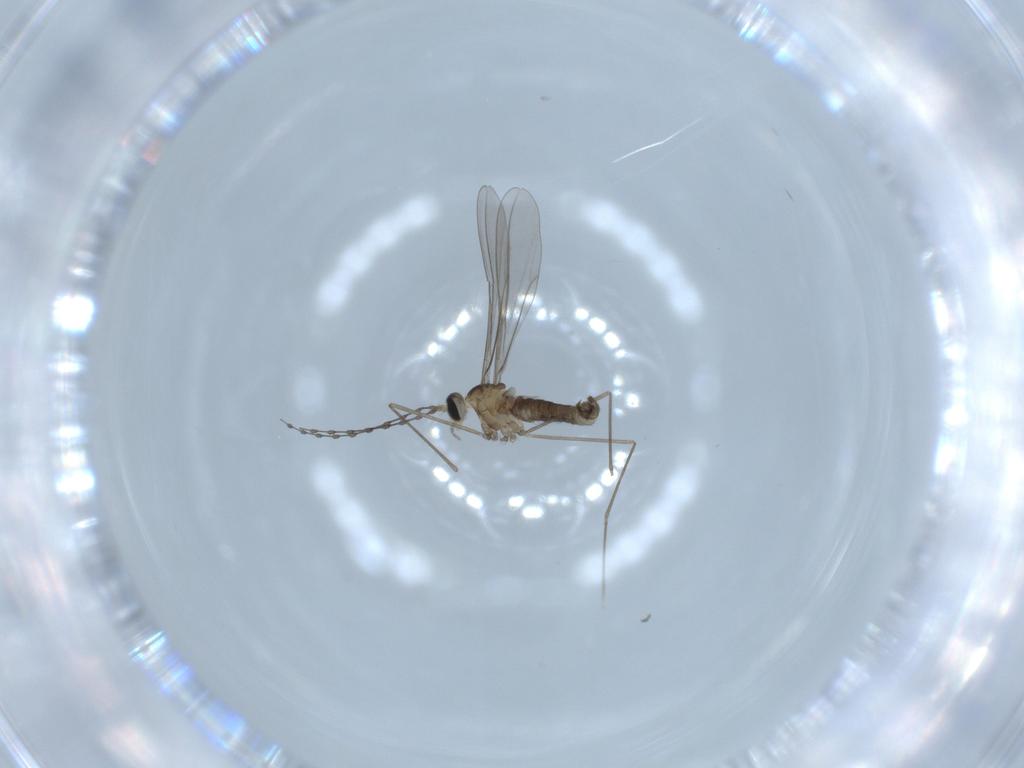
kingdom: Animalia
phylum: Arthropoda
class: Insecta
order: Diptera
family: Cecidomyiidae
